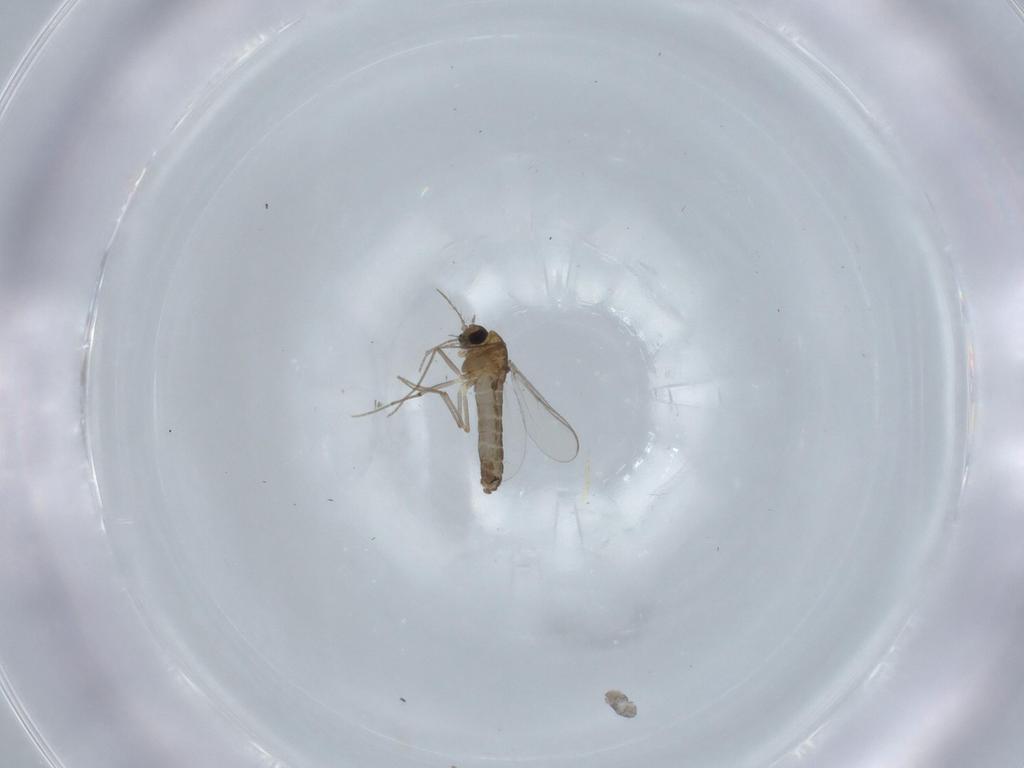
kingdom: Animalia
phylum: Arthropoda
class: Insecta
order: Diptera
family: Chironomidae
